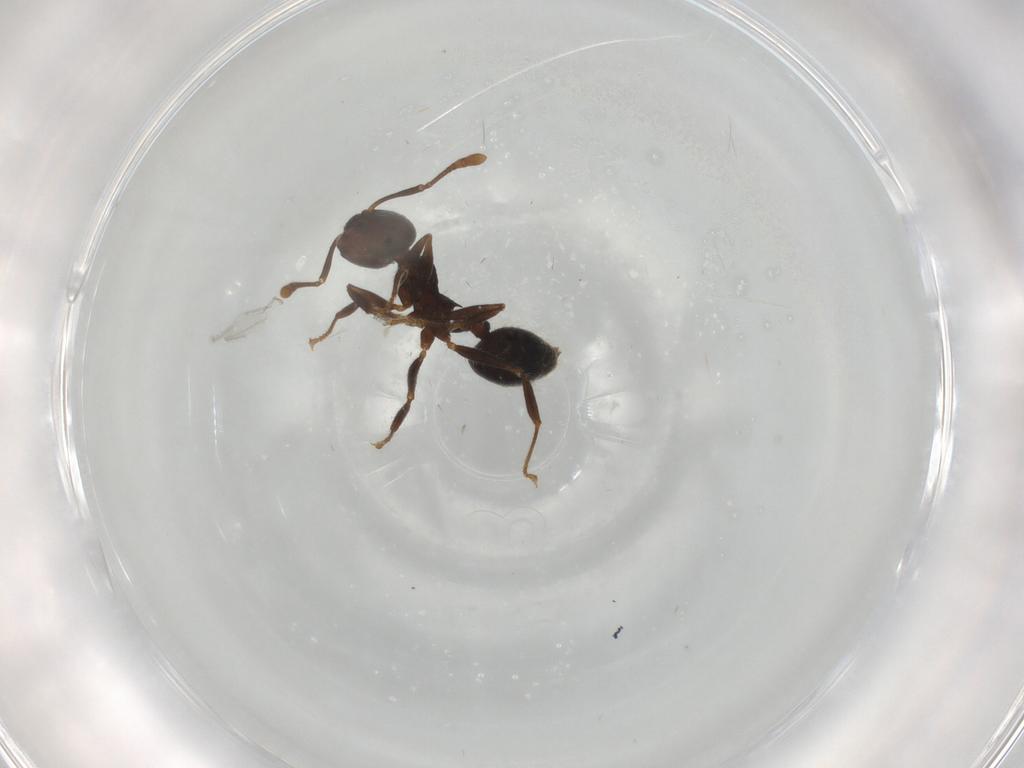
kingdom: Animalia
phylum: Arthropoda
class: Insecta
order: Hymenoptera
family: Formicidae
